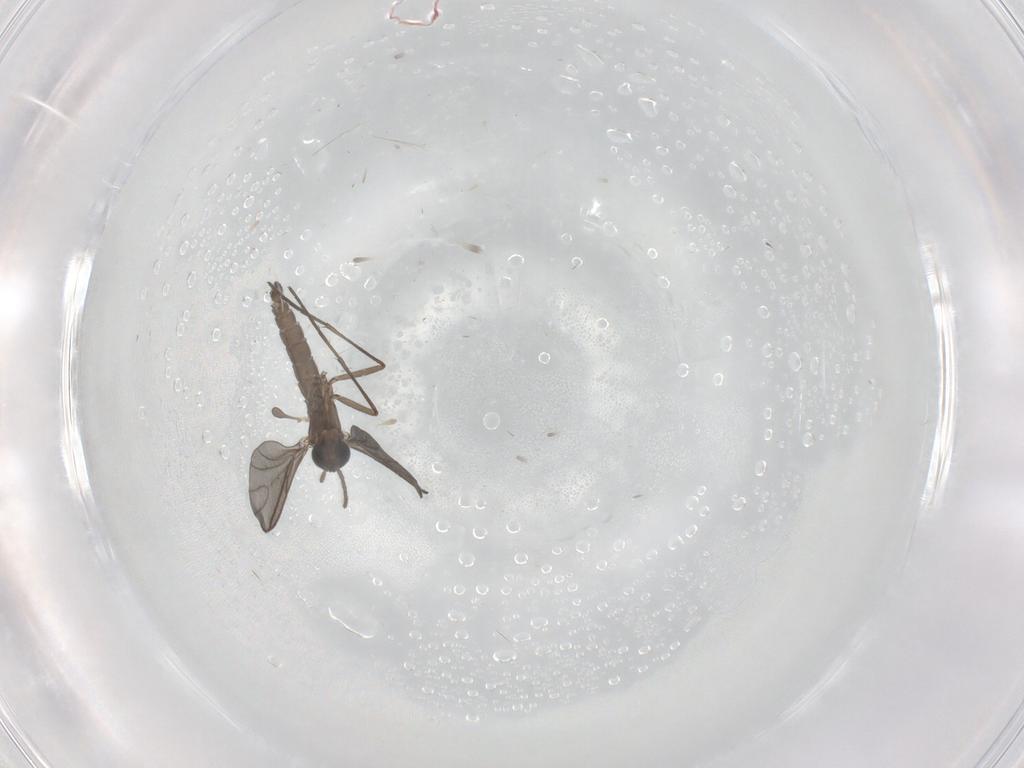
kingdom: Animalia
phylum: Arthropoda
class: Insecta
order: Diptera
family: Sciaridae
